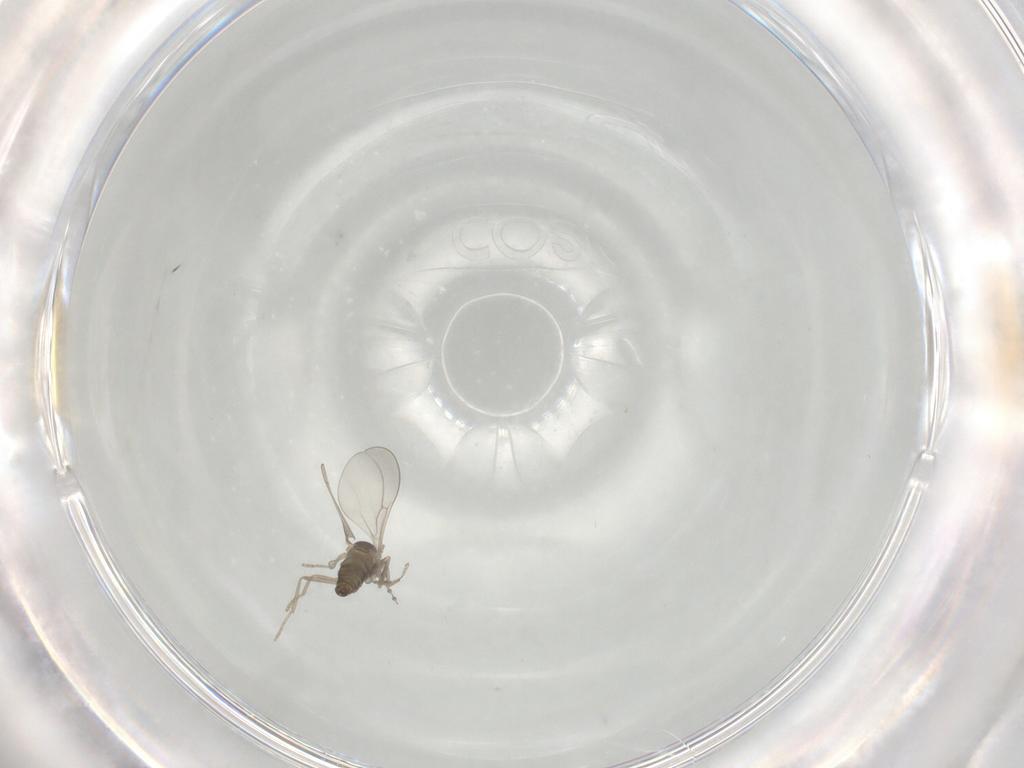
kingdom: Animalia
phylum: Arthropoda
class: Insecta
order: Diptera
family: Cecidomyiidae
